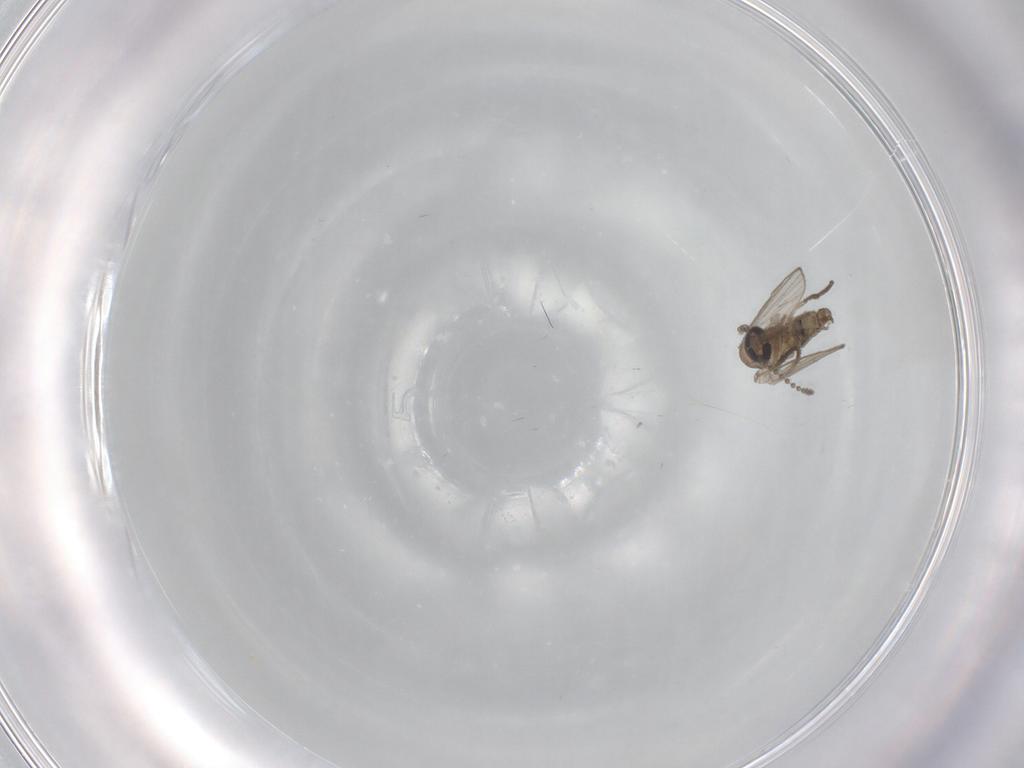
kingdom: Animalia
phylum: Arthropoda
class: Insecta
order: Diptera
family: Psychodidae
